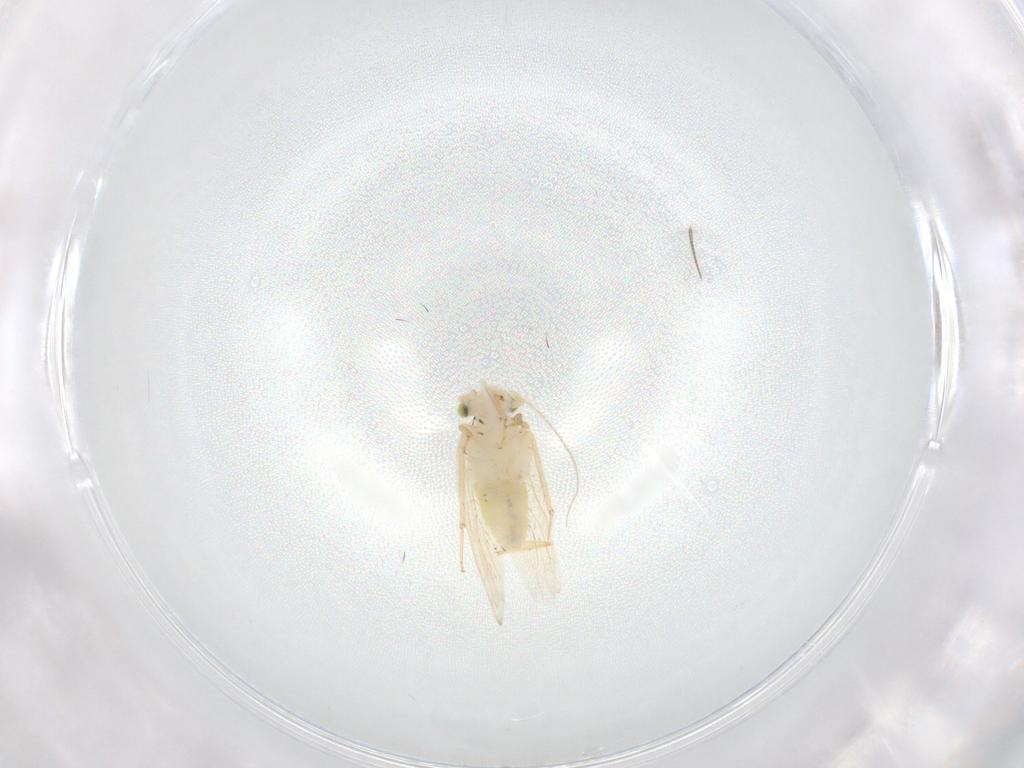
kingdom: Animalia
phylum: Arthropoda
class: Insecta
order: Psocodea
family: Lepidopsocidae
